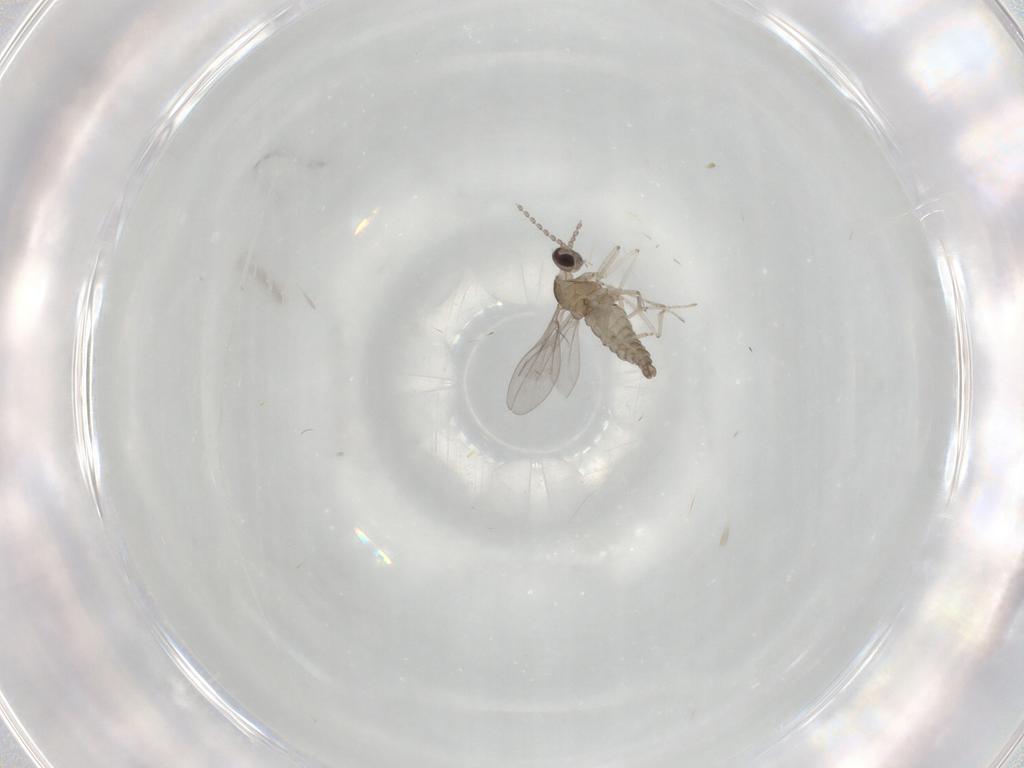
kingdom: Animalia
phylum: Arthropoda
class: Insecta
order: Diptera
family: Cecidomyiidae
